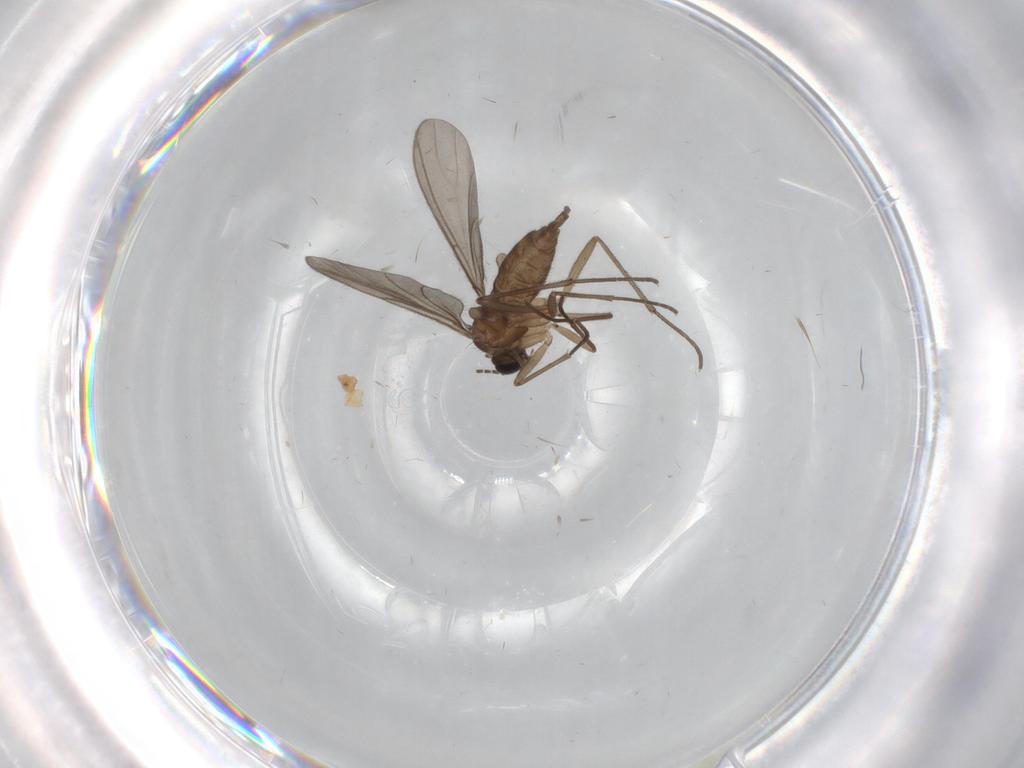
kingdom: Animalia
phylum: Arthropoda
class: Insecta
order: Diptera
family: Sciaridae
